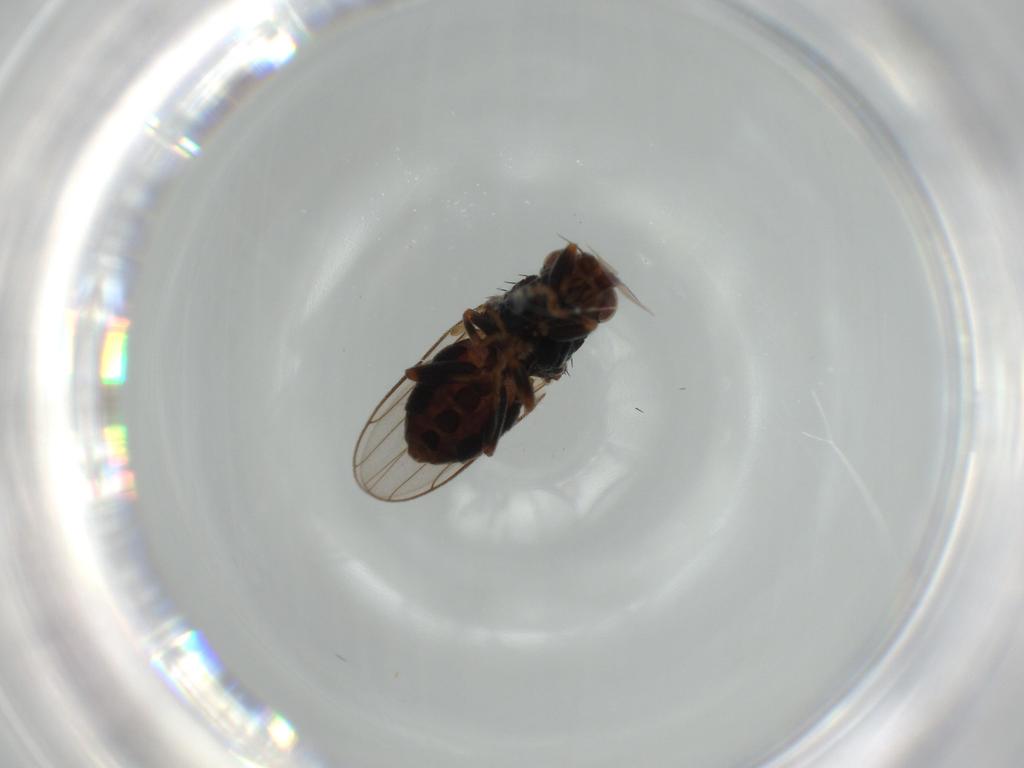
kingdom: Animalia
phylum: Arthropoda
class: Insecta
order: Diptera
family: Chloropidae
